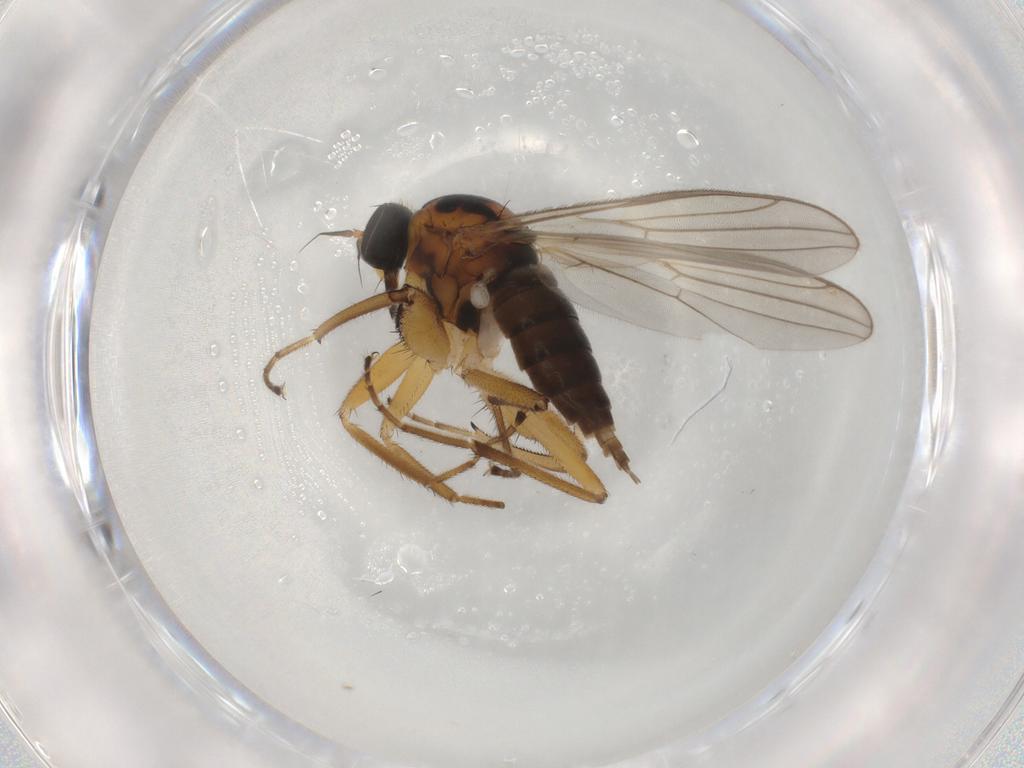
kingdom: Animalia
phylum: Arthropoda
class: Insecta
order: Diptera
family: Hybotidae
